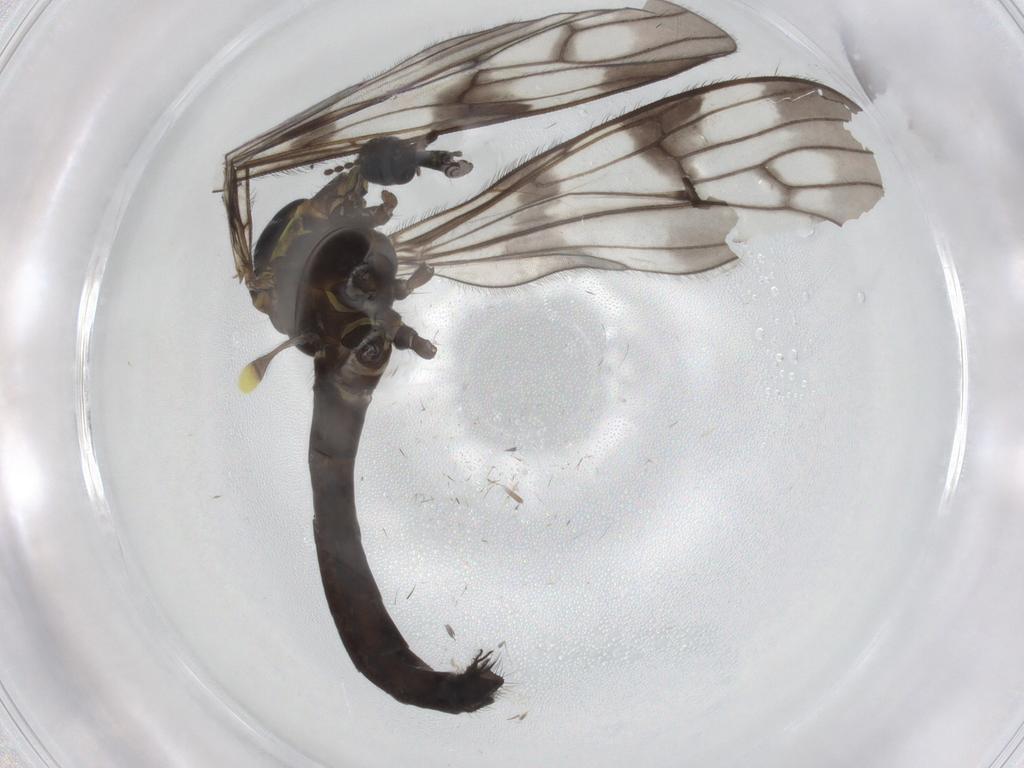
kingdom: Animalia
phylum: Arthropoda
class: Insecta
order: Diptera
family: Limoniidae
